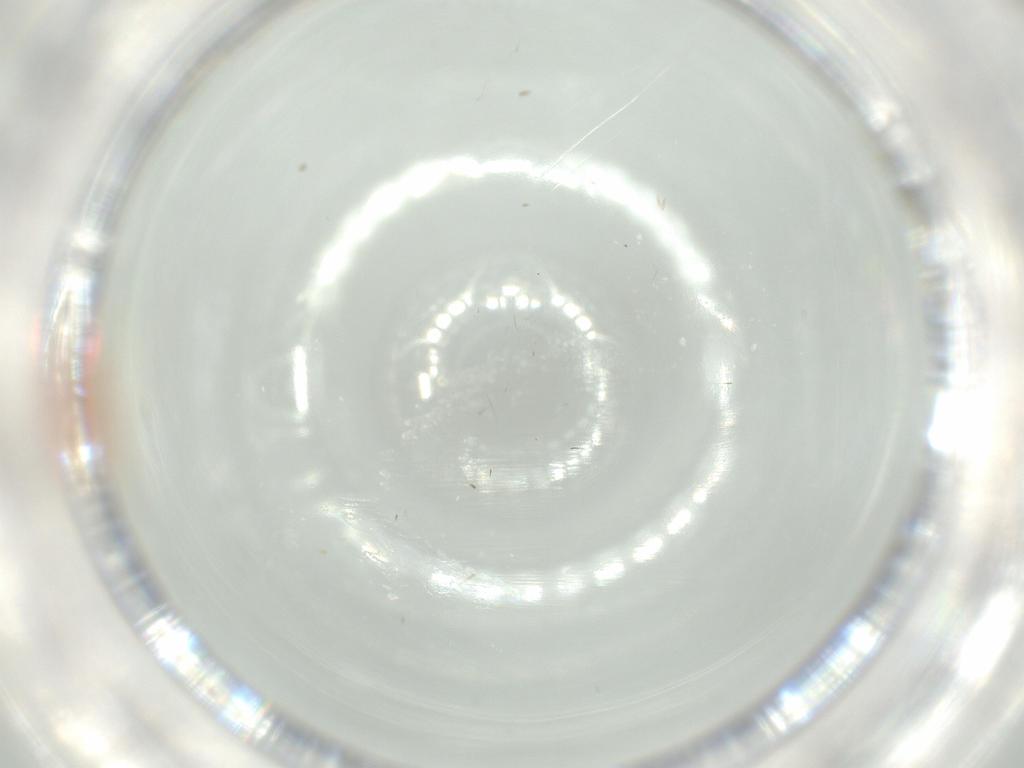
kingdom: Animalia
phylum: Arthropoda
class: Insecta
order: Hemiptera
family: Monophlebidae
